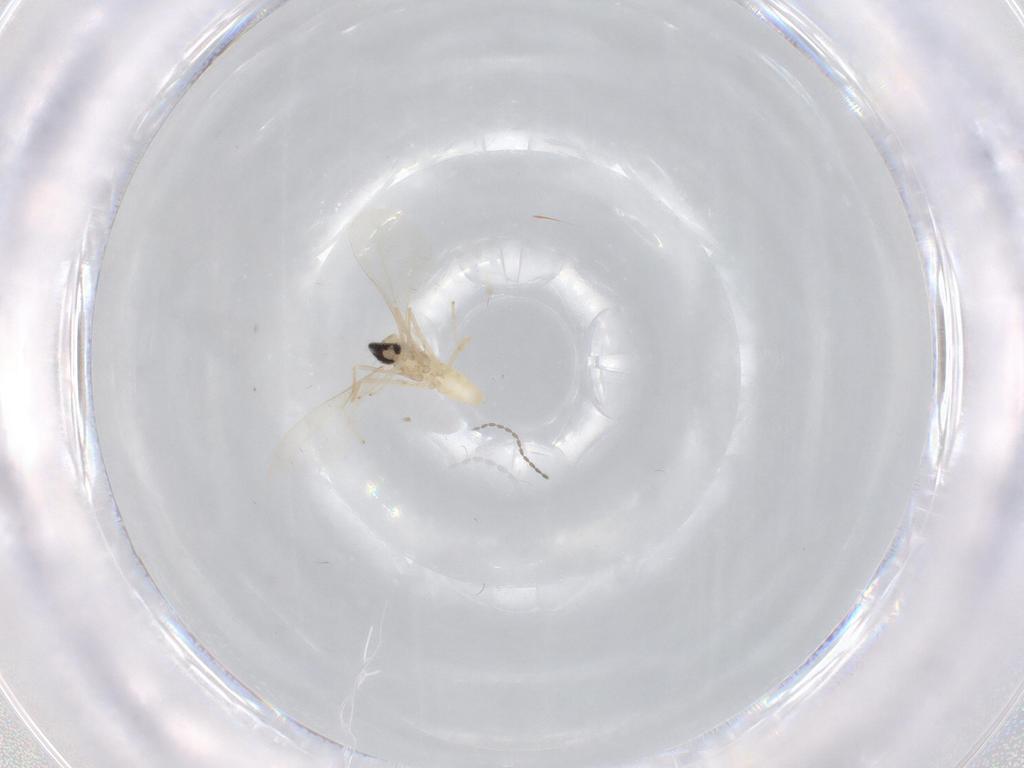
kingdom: Animalia
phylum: Arthropoda
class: Insecta
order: Diptera
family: Cecidomyiidae
